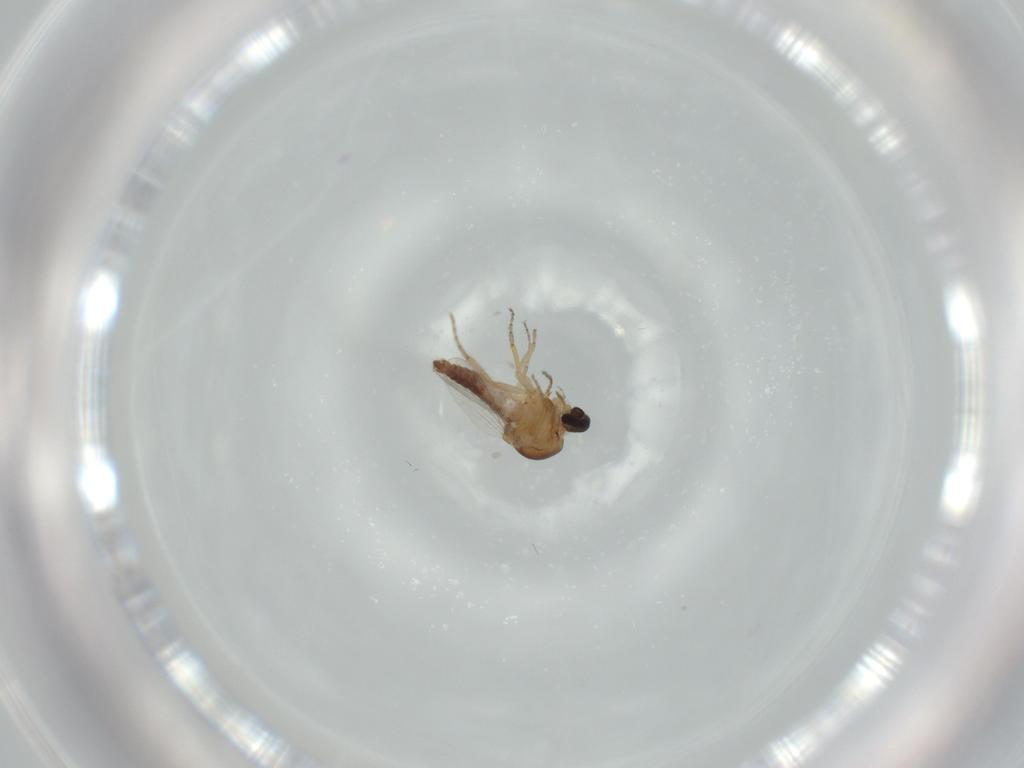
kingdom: Animalia
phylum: Arthropoda
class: Insecta
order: Diptera
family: Ceratopogonidae
